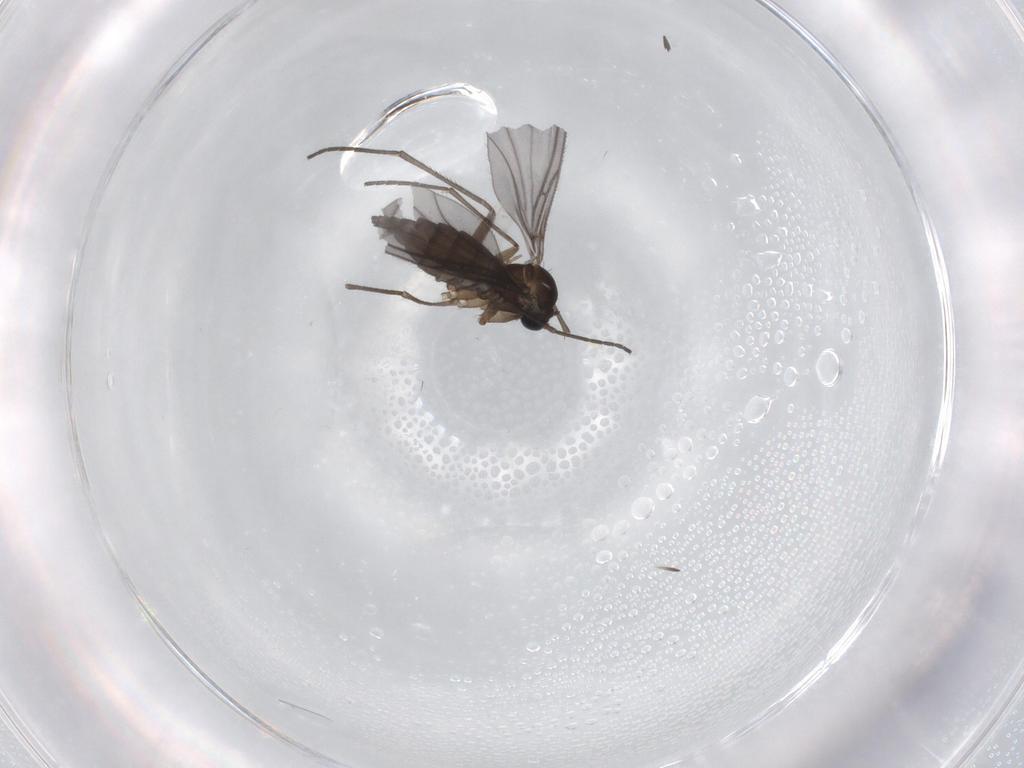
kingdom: Animalia
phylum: Arthropoda
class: Insecta
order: Diptera
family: Sciaridae
